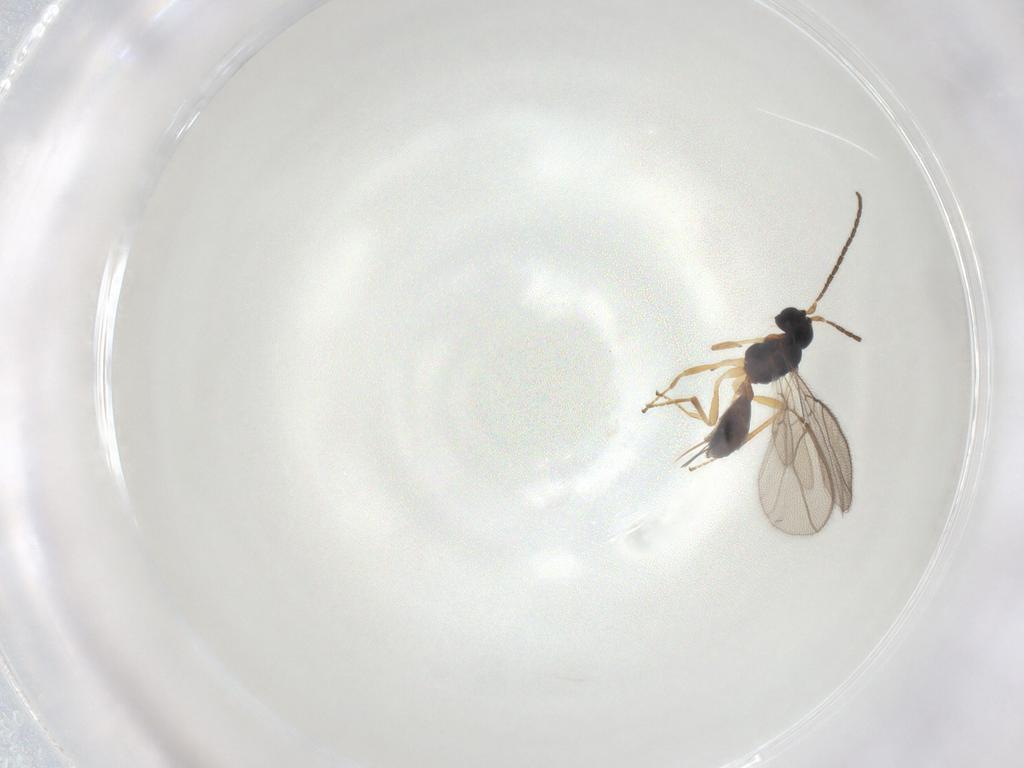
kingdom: Animalia
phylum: Arthropoda
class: Insecta
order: Hymenoptera
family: Braconidae
